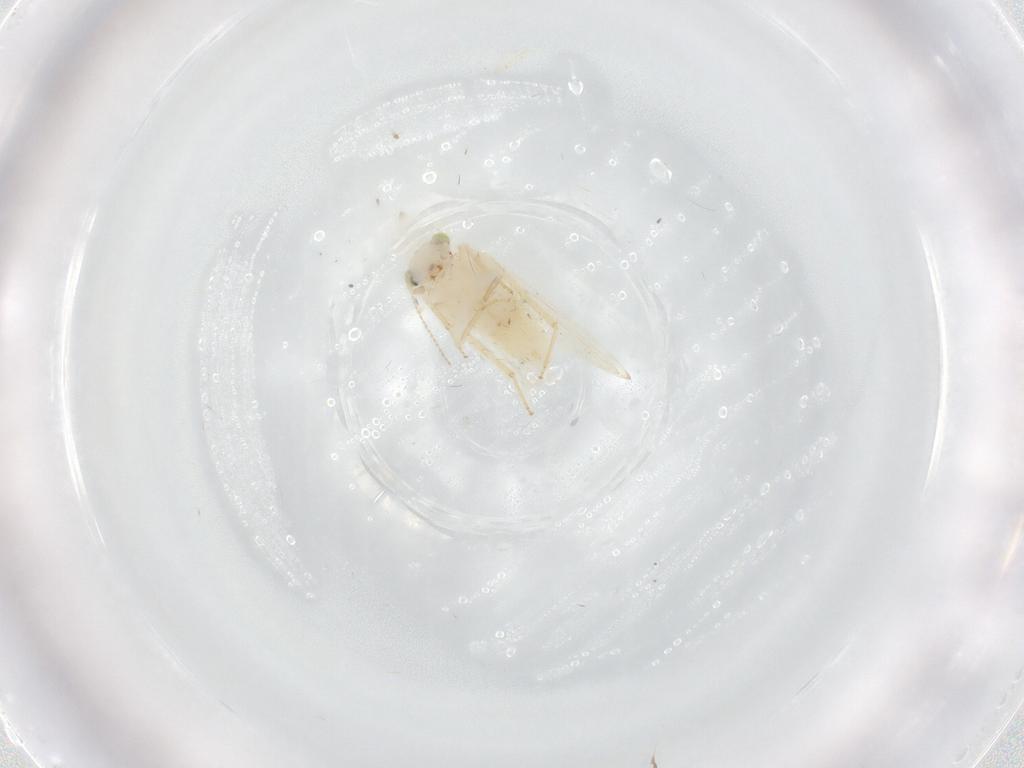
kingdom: Animalia
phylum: Arthropoda
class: Insecta
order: Psocodea
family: Lepidopsocidae
